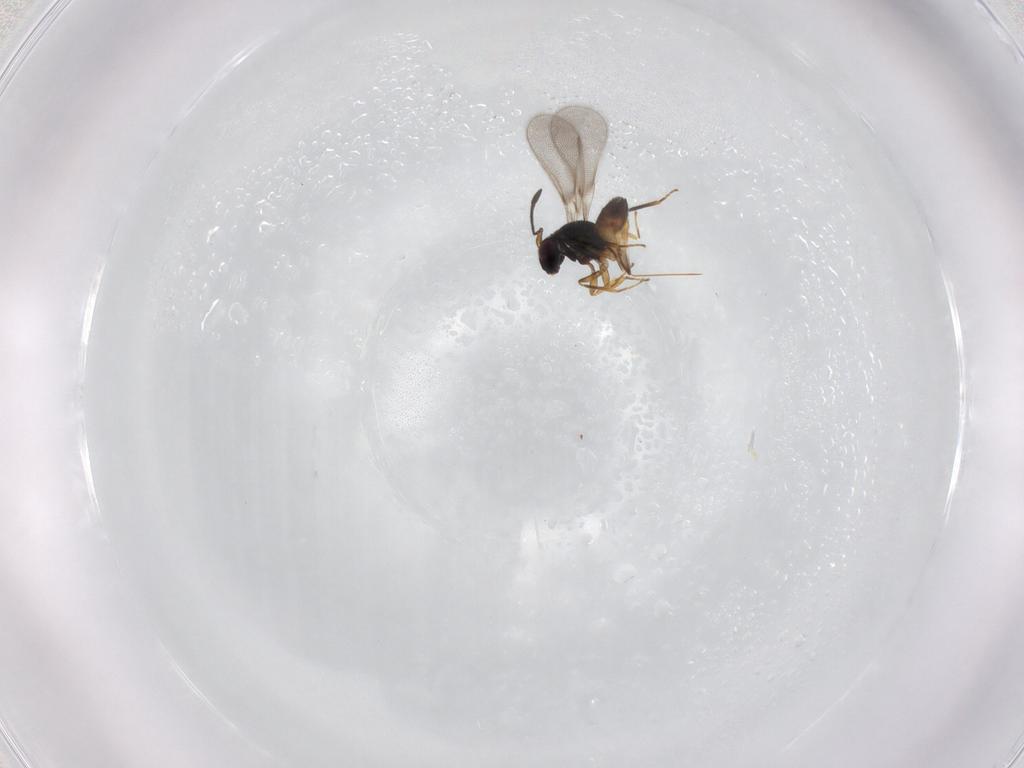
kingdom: Animalia
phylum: Arthropoda
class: Insecta
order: Hymenoptera
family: Mymaridae
